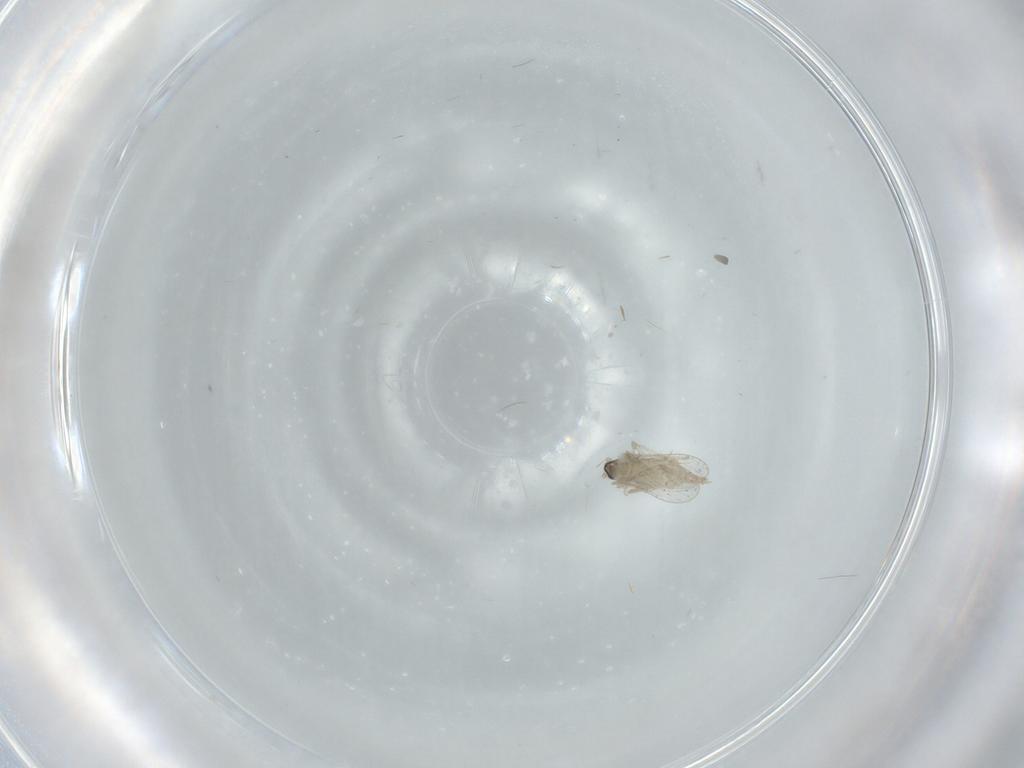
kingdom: Animalia
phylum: Arthropoda
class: Insecta
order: Diptera
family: Cecidomyiidae
